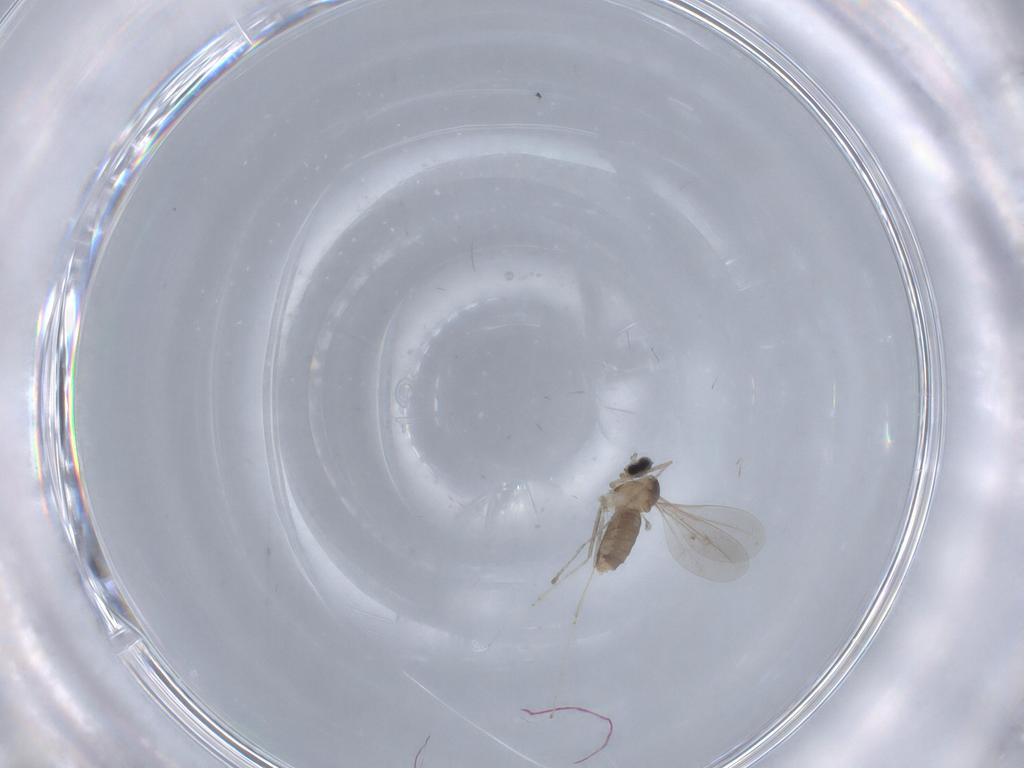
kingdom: Animalia
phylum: Arthropoda
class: Insecta
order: Diptera
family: Cecidomyiidae
